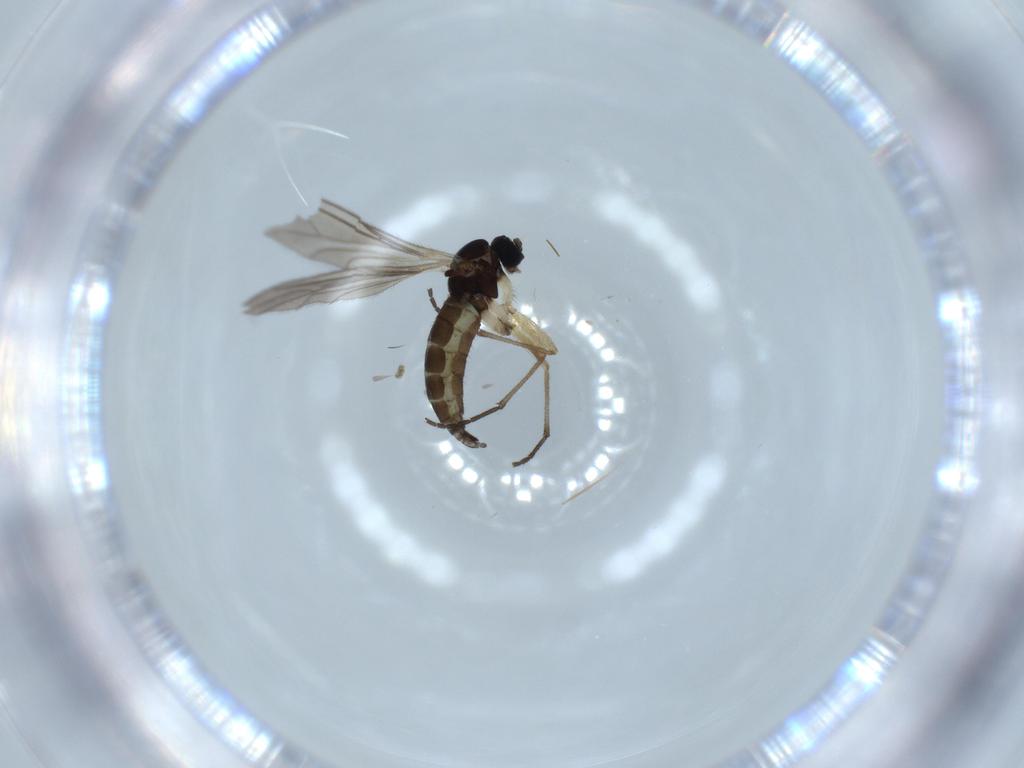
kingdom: Animalia
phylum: Arthropoda
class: Insecta
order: Diptera
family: Sciaridae
